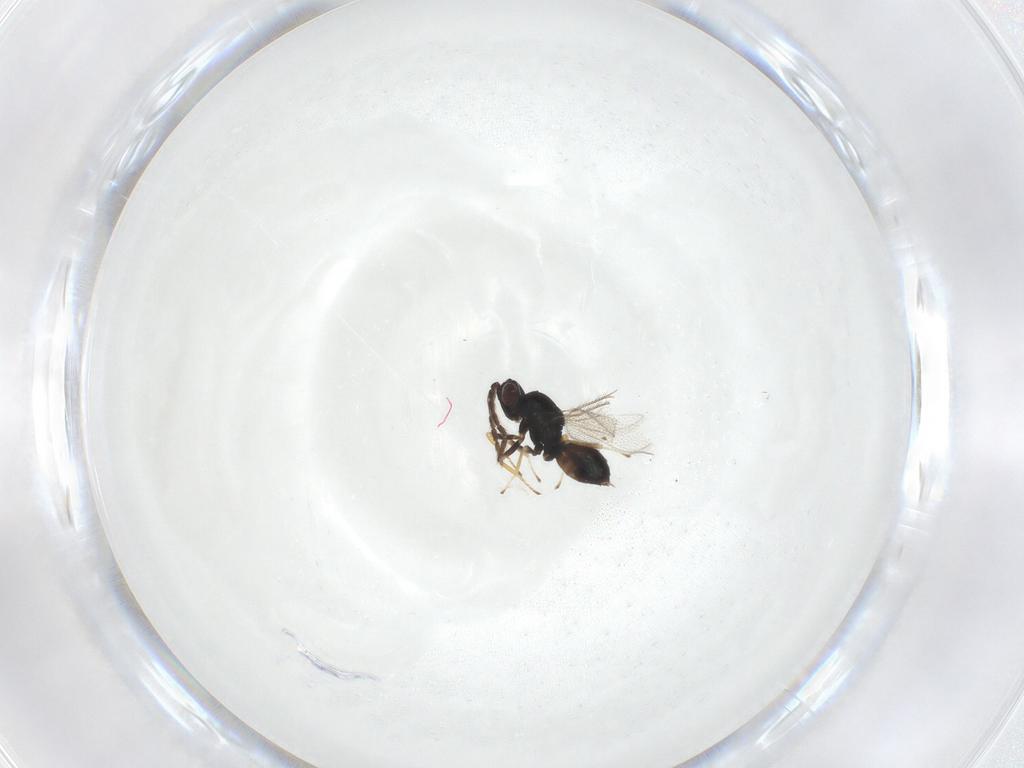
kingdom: Animalia
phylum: Arthropoda
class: Insecta
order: Hymenoptera
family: Eulophidae
